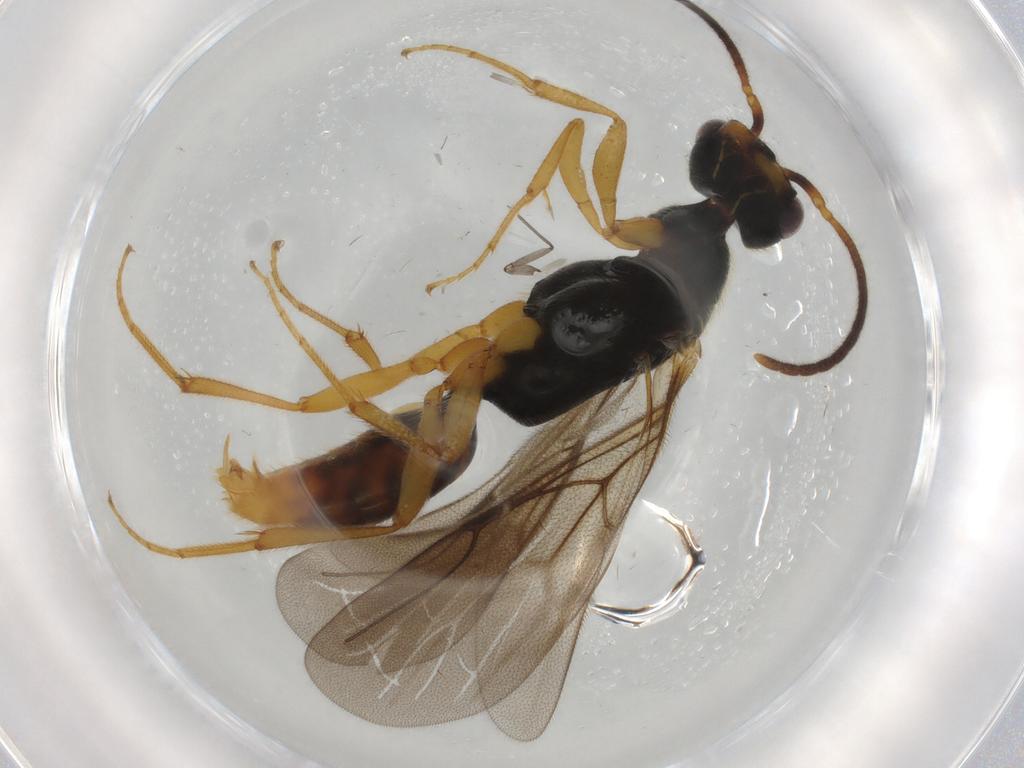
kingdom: Animalia
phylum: Arthropoda
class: Insecta
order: Hymenoptera
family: Bethylidae
